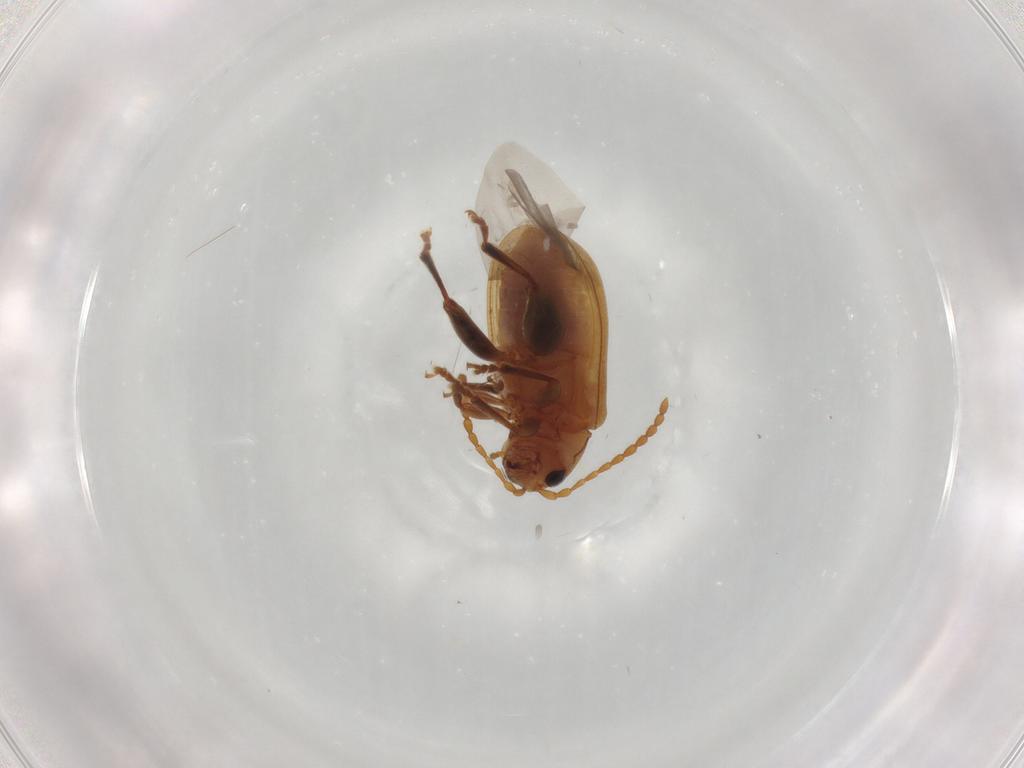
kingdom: Animalia
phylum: Arthropoda
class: Insecta
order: Coleoptera
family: Chrysomelidae
